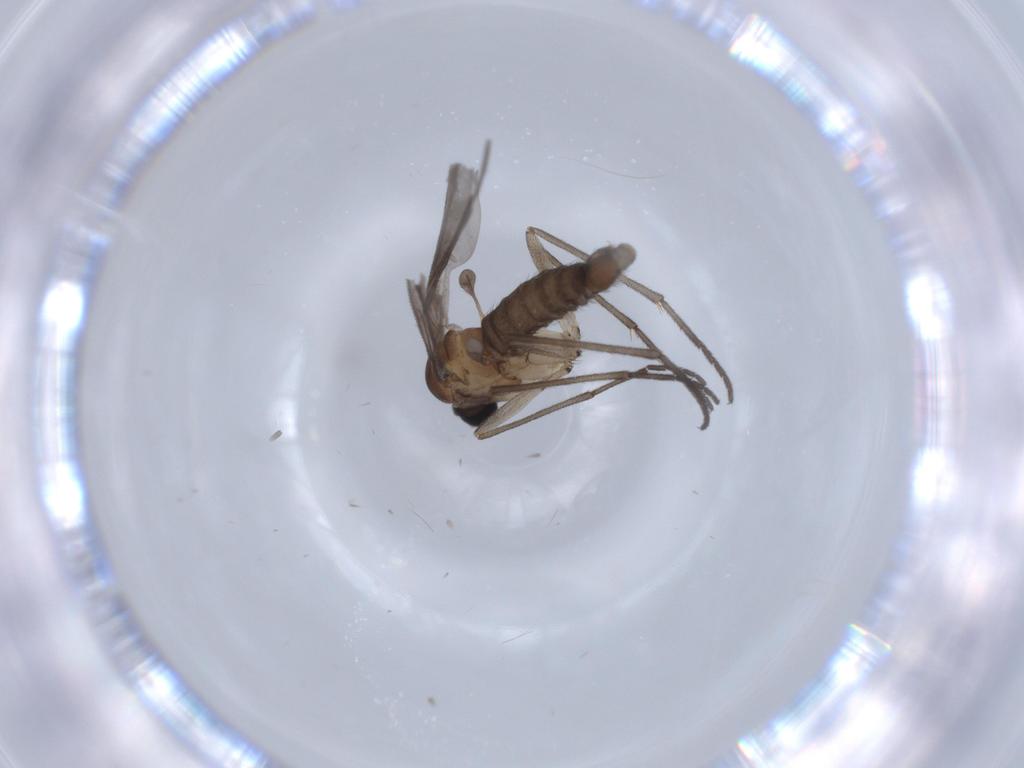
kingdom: Animalia
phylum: Arthropoda
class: Insecta
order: Diptera
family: Sciaridae
